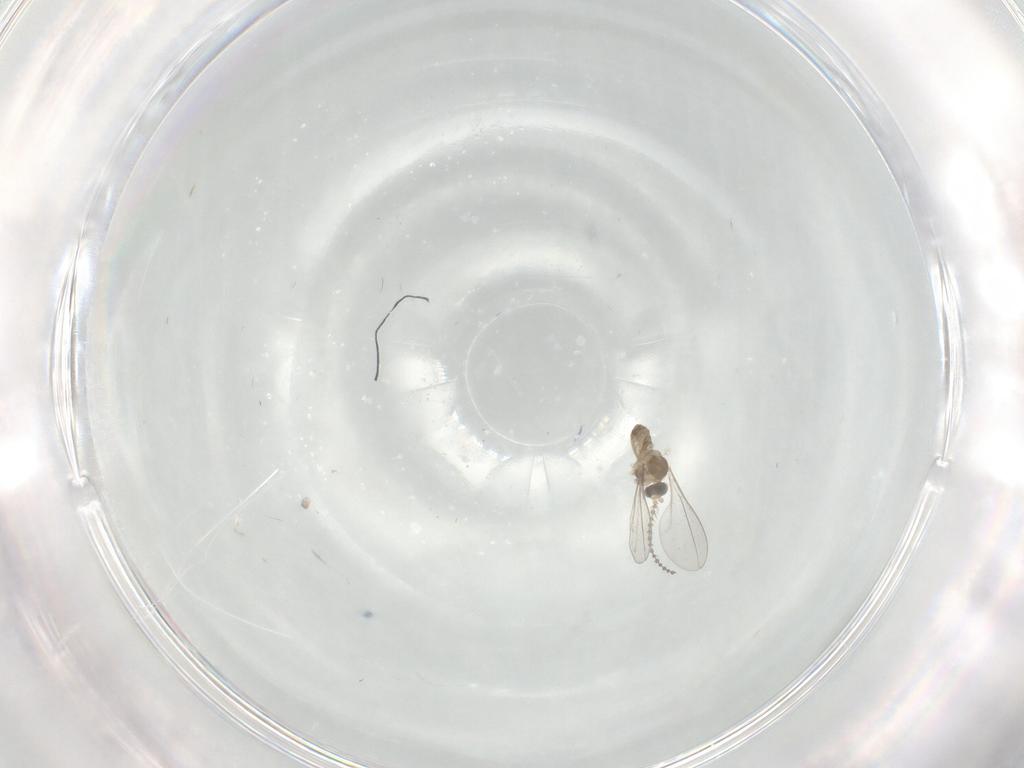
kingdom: Animalia
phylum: Arthropoda
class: Insecta
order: Diptera
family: Cecidomyiidae
